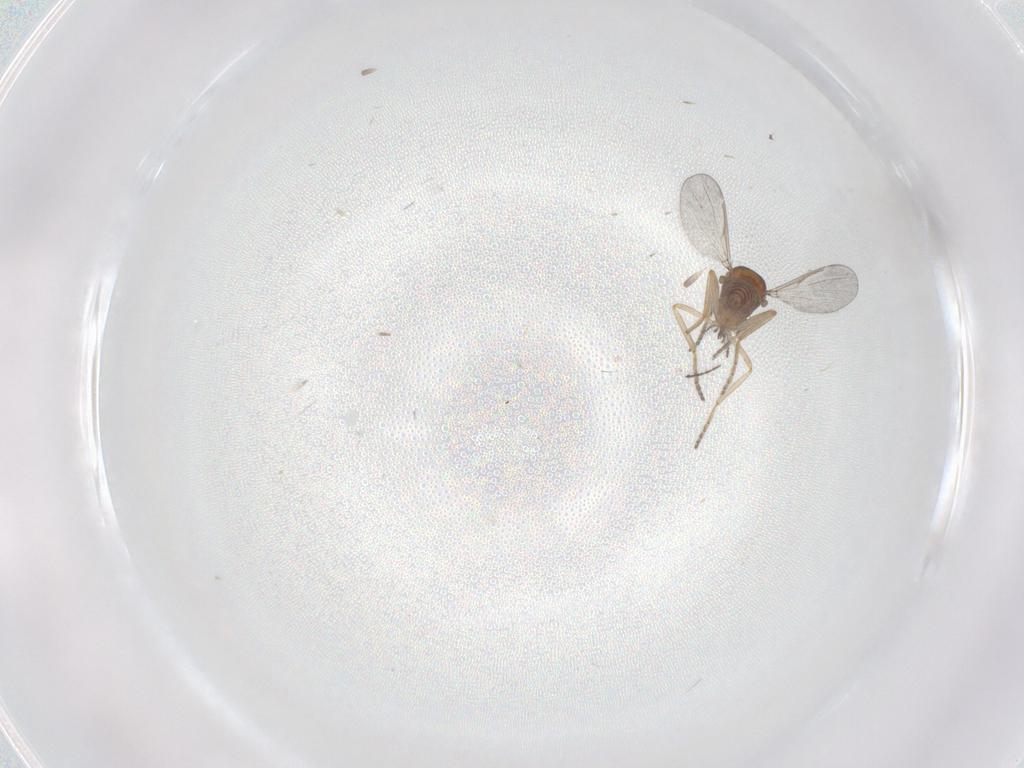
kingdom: Animalia
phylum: Arthropoda
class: Insecta
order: Diptera
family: Ceratopogonidae
